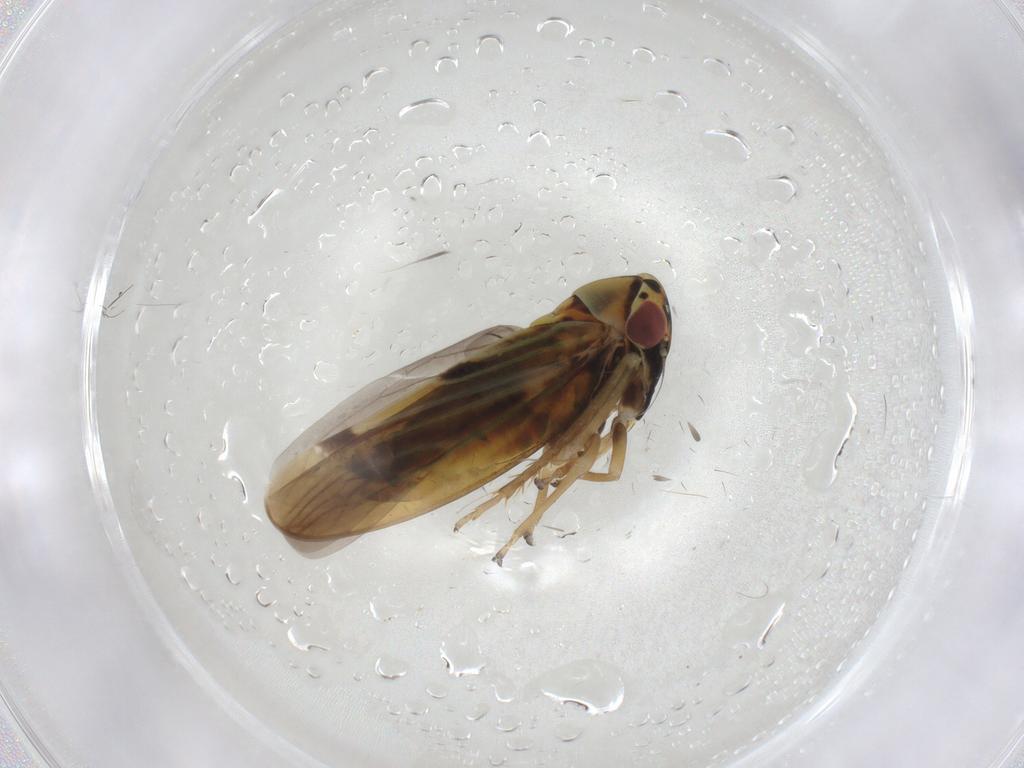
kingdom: Animalia
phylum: Arthropoda
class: Insecta
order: Hemiptera
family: Cicadellidae
